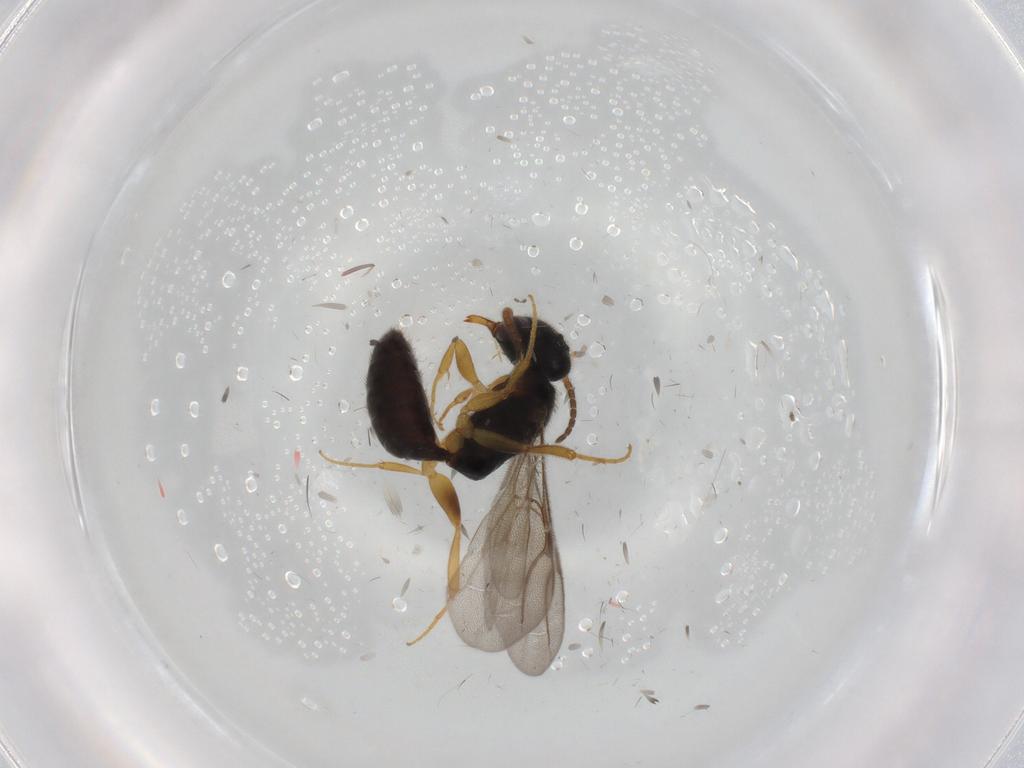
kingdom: Animalia
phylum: Arthropoda
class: Insecta
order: Hymenoptera
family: Bethylidae
